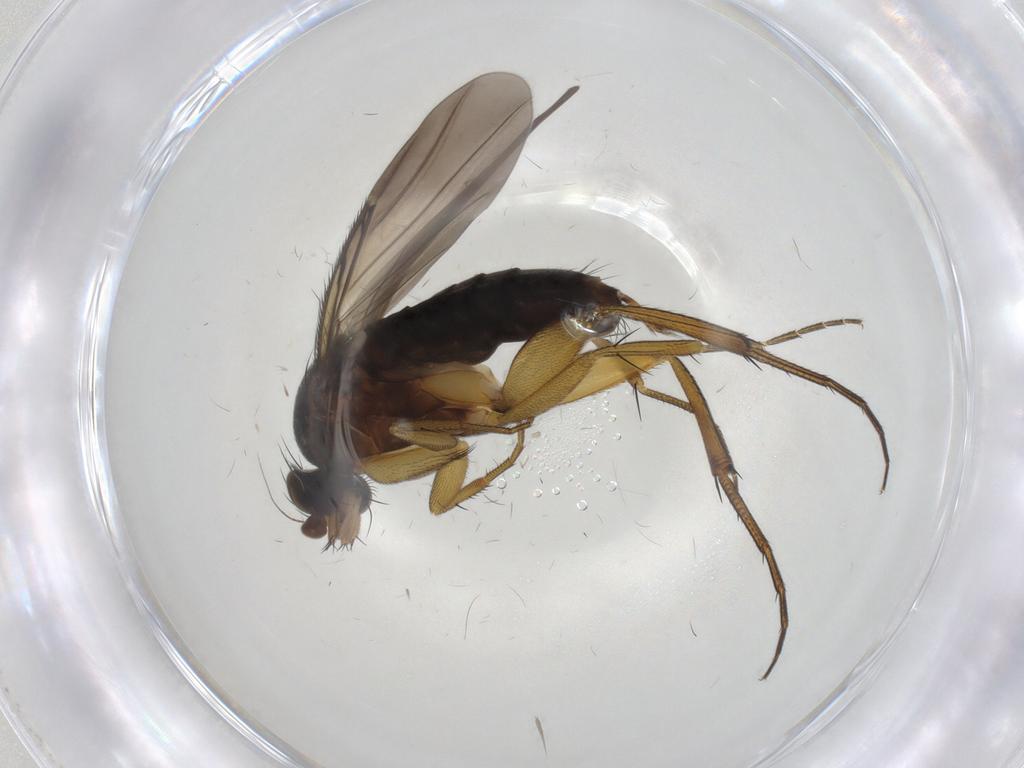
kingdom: Animalia
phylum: Arthropoda
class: Insecta
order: Diptera
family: Phoridae
